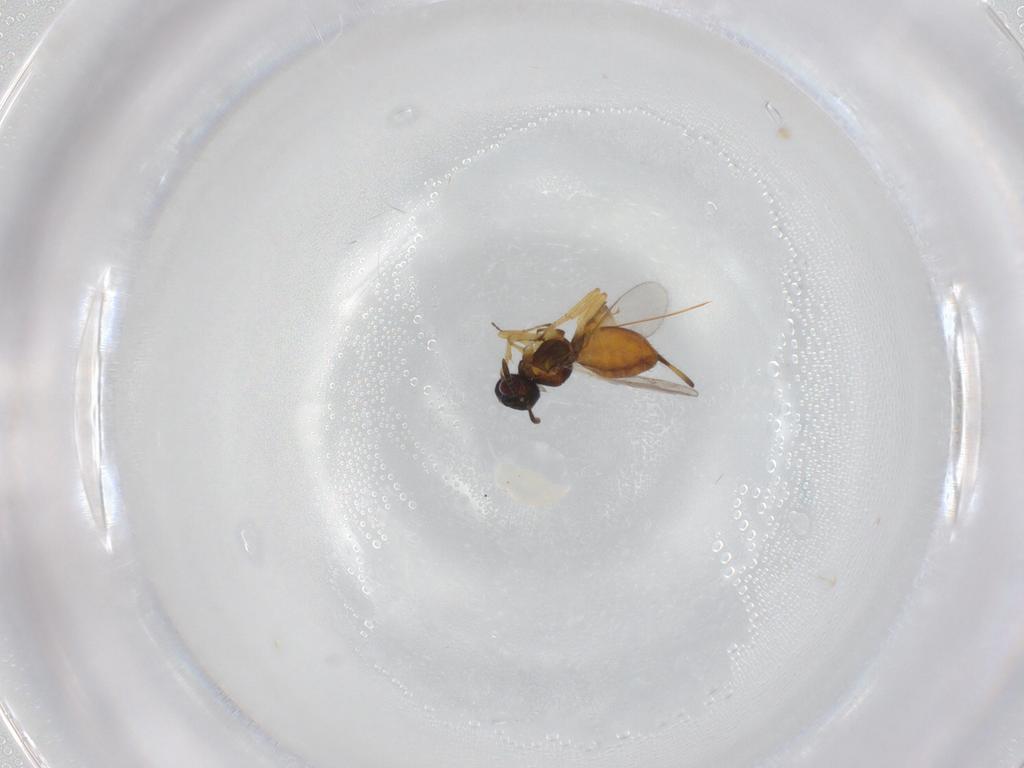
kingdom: Animalia
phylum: Arthropoda
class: Insecta
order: Hymenoptera
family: Eupelmidae
